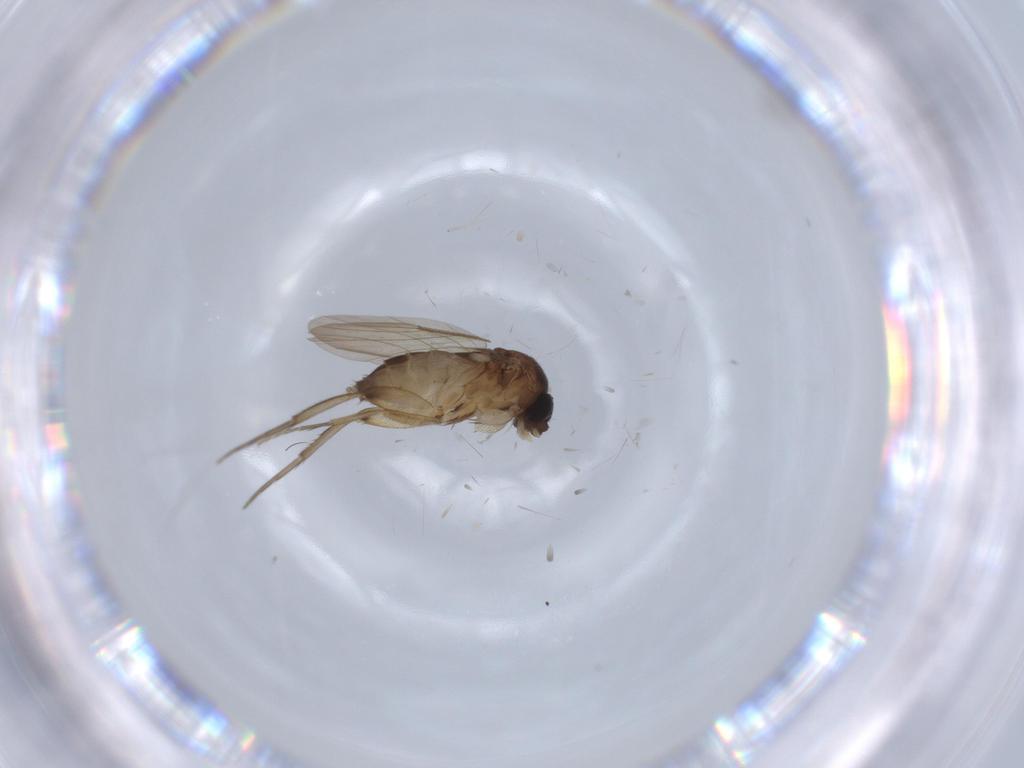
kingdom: Animalia
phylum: Arthropoda
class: Insecta
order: Diptera
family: Phoridae
